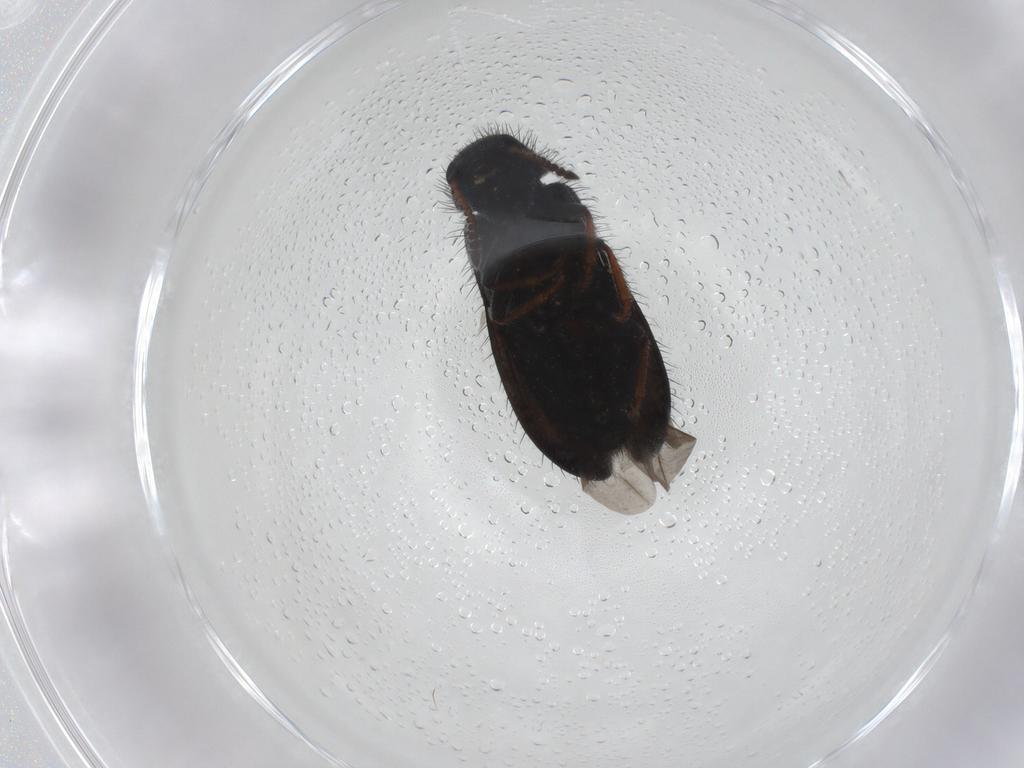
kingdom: Animalia
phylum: Arthropoda
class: Insecta
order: Coleoptera
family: Melyridae
